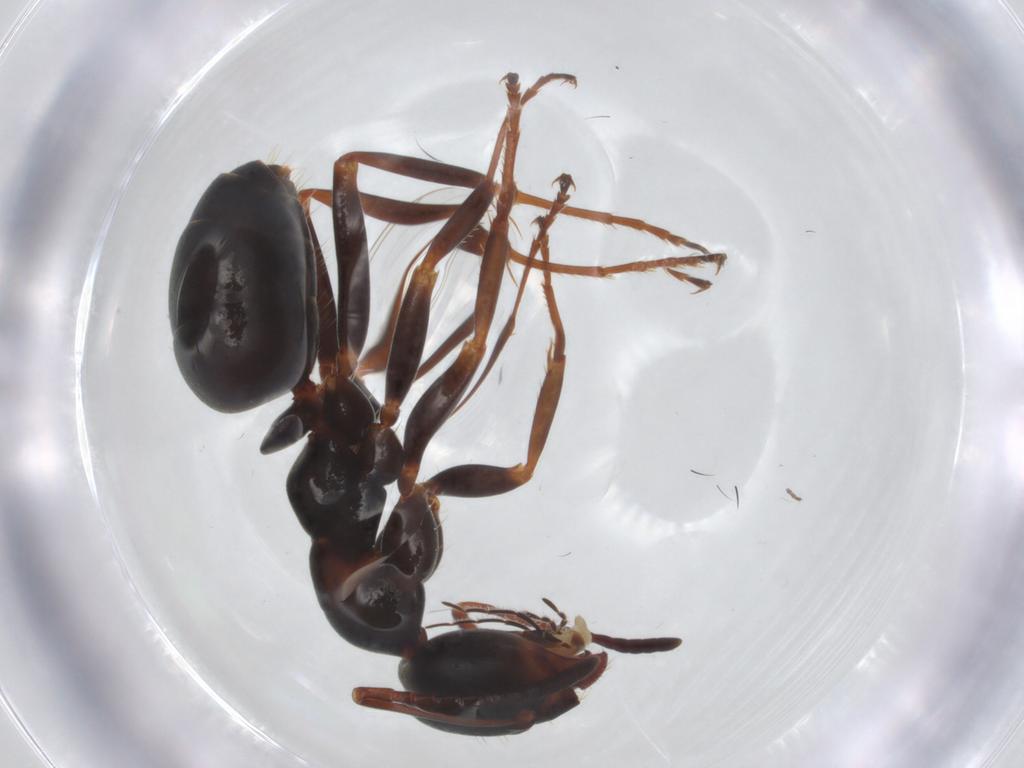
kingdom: Animalia
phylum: Arthropoda
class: Insecta
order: Hymenoptera
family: Formicidae
